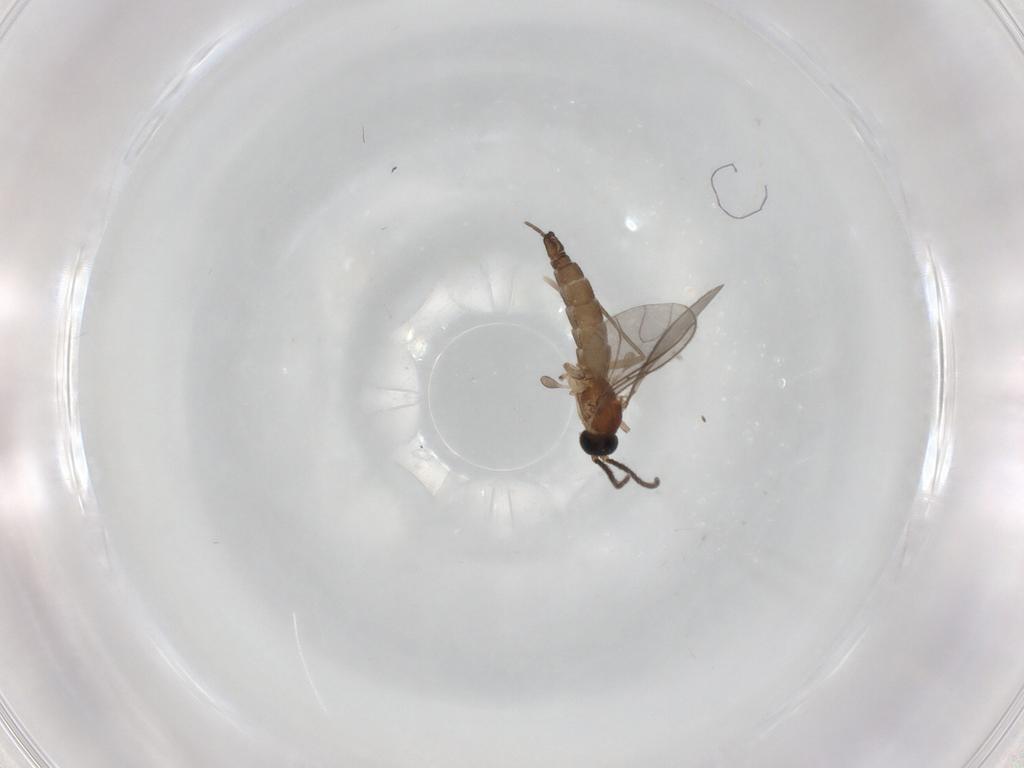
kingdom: Animalia
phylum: Arthropoda
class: Insecta
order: Diptera
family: Sciaridae
